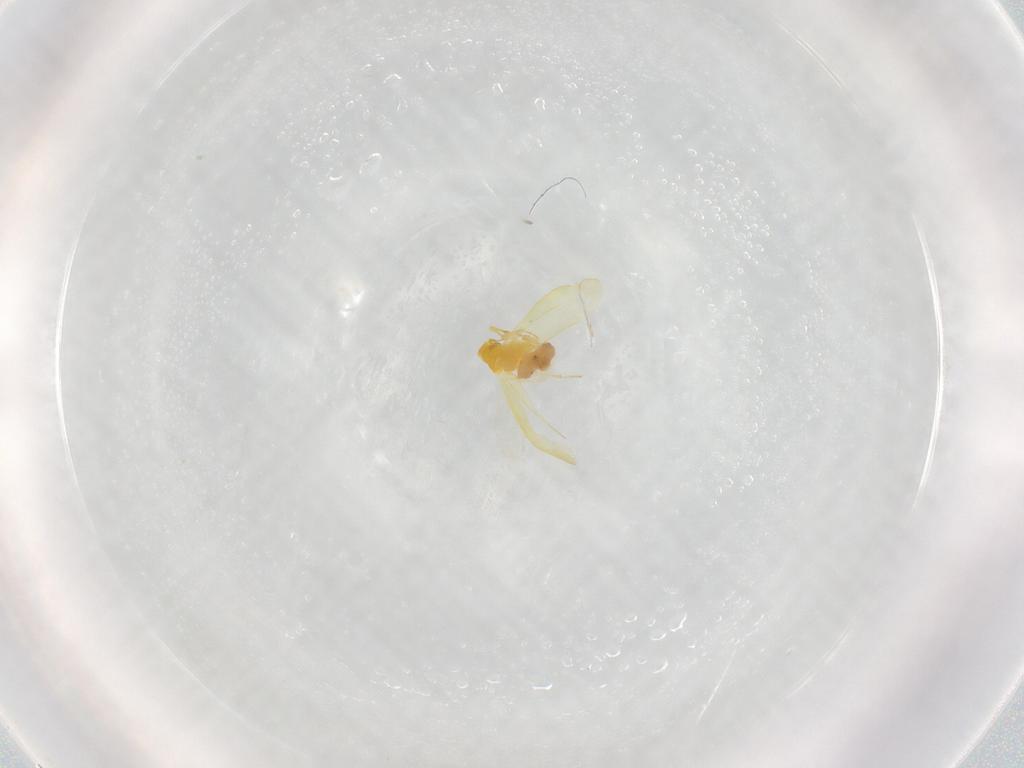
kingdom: Animalia
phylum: Arthropoda
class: Insecta
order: Hemiptera
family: Aleyrodidae
